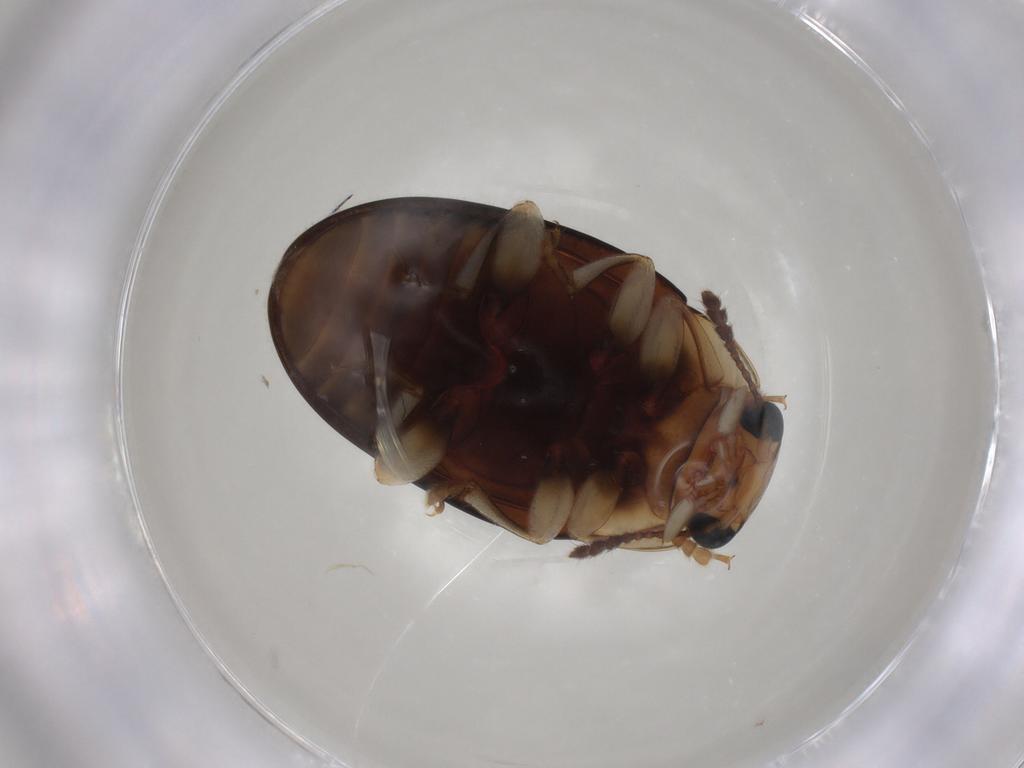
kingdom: Animalia
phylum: Arthropoda
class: Insecta
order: Coleoptera
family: Erotylidae
